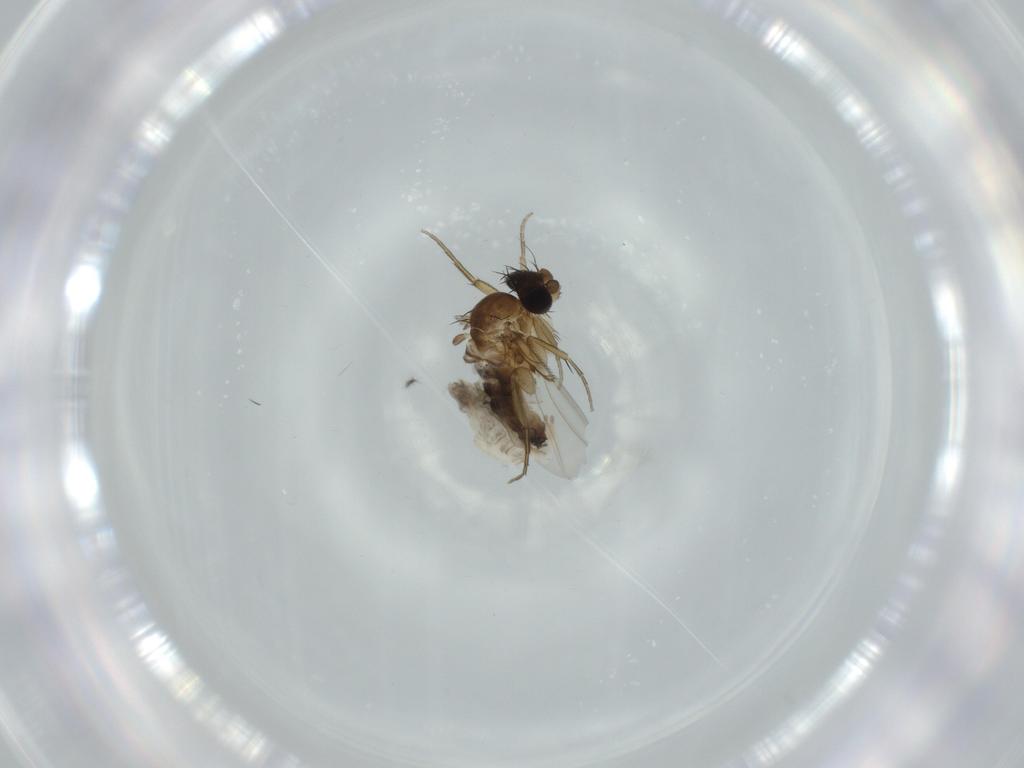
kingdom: Animalia
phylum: Arthropoda
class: Insecta
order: Diptera
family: Cecidomyiidae
